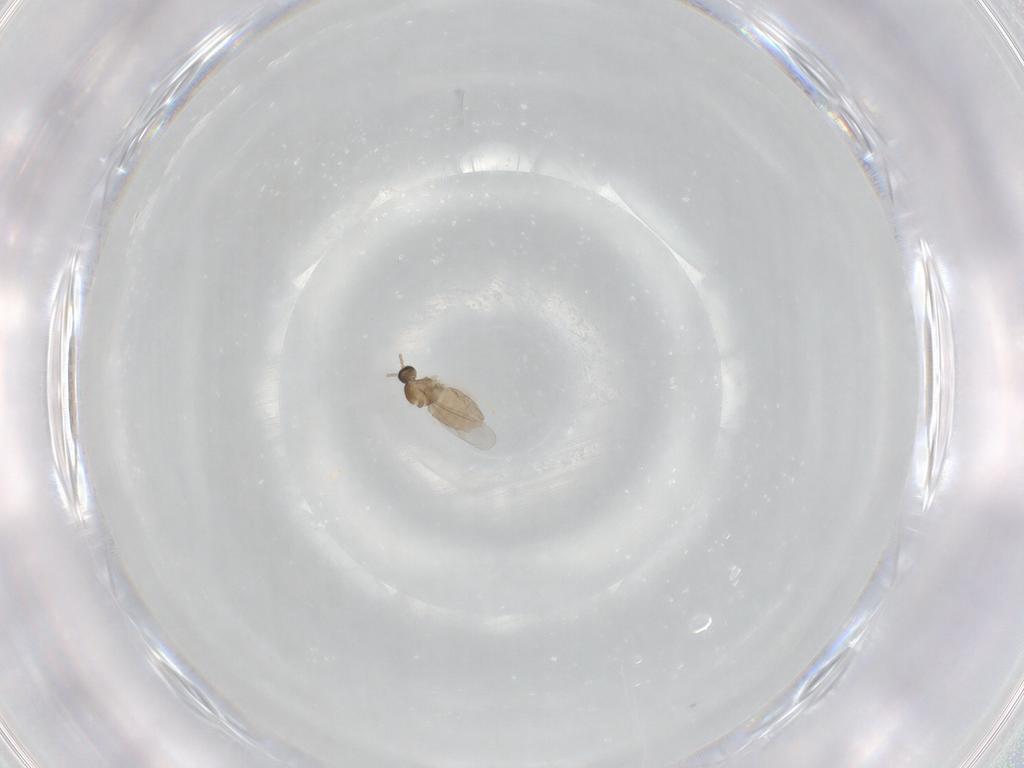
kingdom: Animalia
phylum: Arthropoda
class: Insecta
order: Diptera
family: Cecidomyiidae
